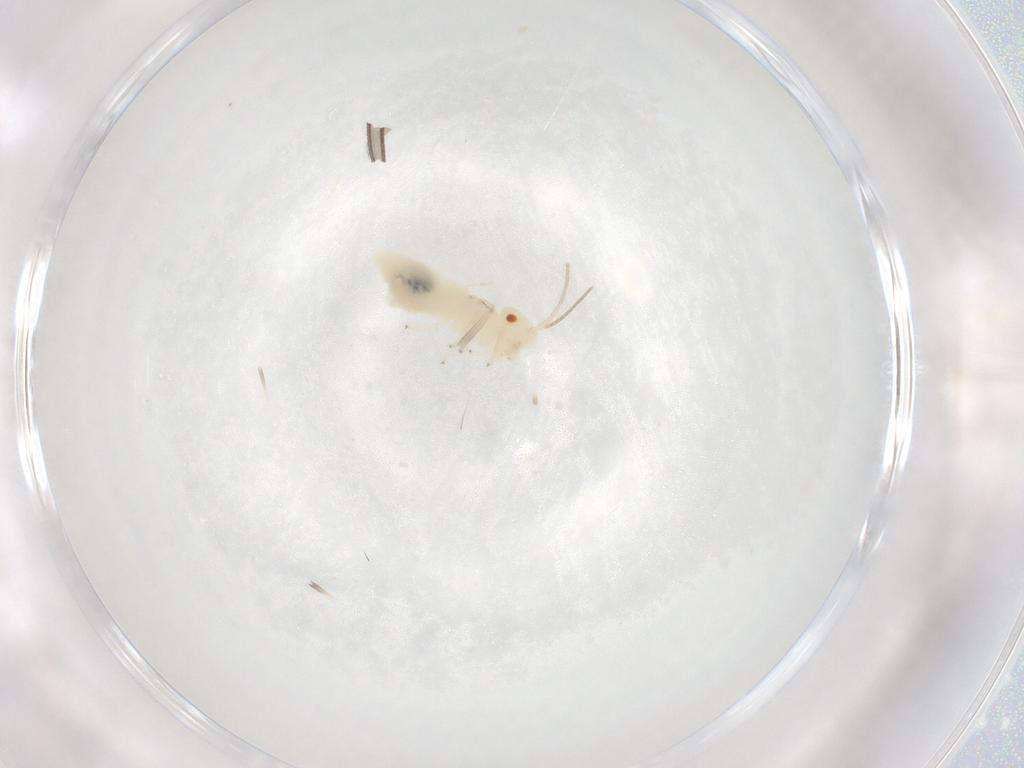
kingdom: Animalia
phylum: Arthropoda
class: Insecta
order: Psocodea
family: Caeciliusidae
